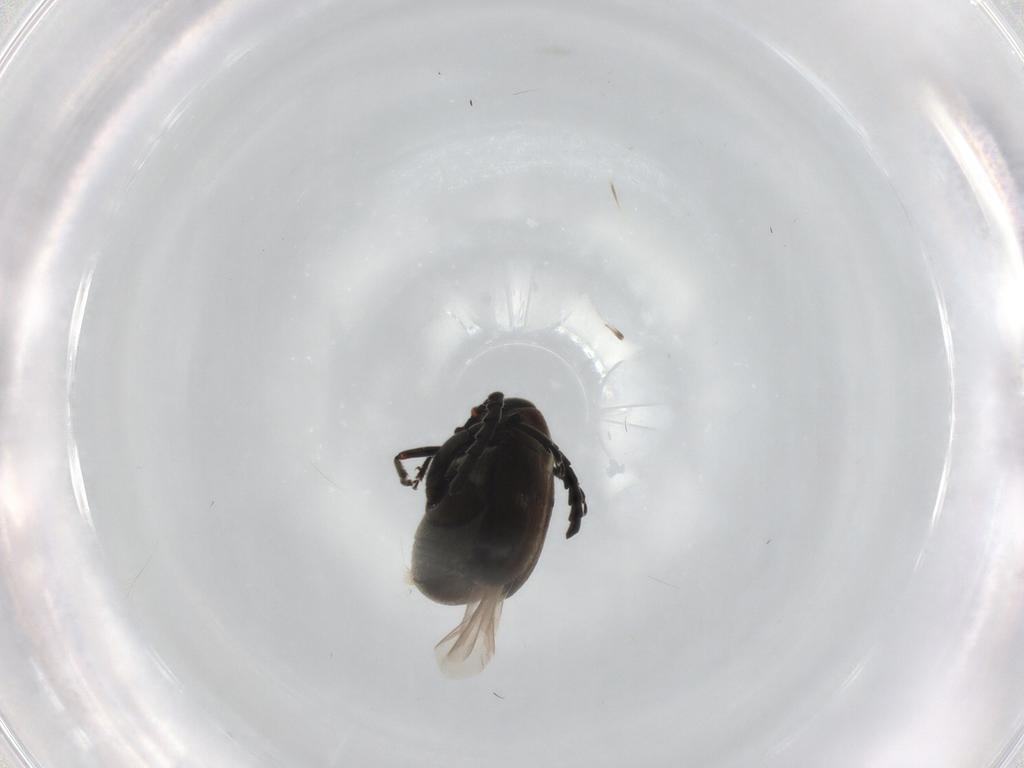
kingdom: Animalia
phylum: Arthropoda
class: Insecta
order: Coleoptera
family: Chrysomelidae
